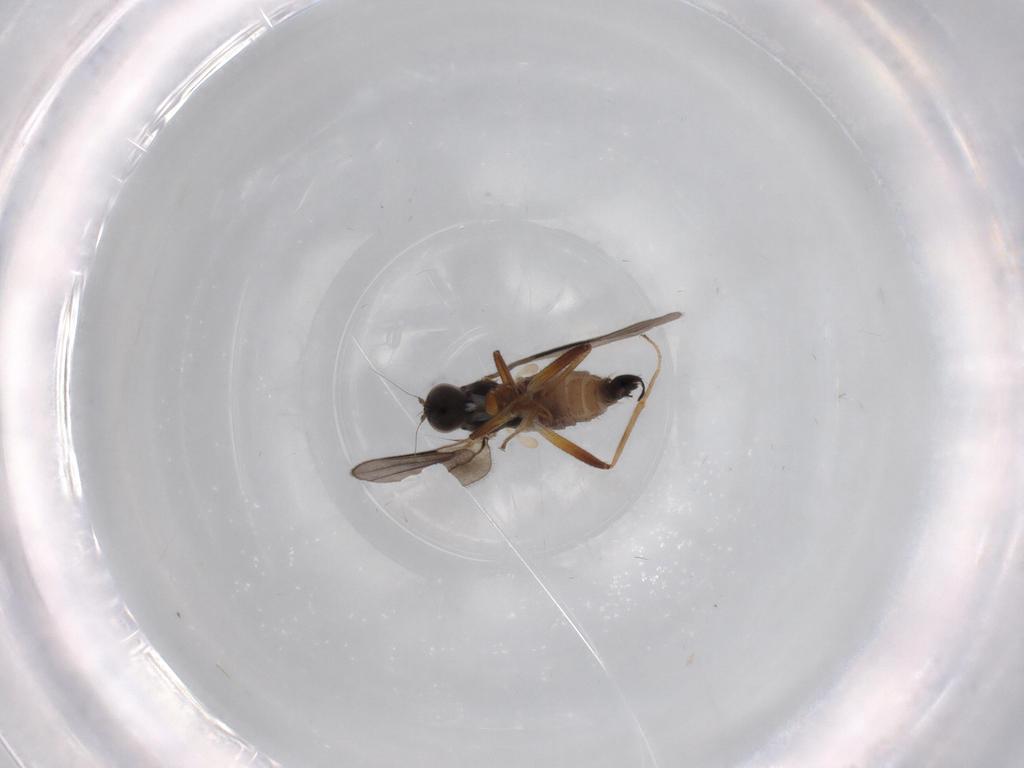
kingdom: Animalia
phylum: Arthropoda
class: Insecta
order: Diptera
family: Hybotidae
